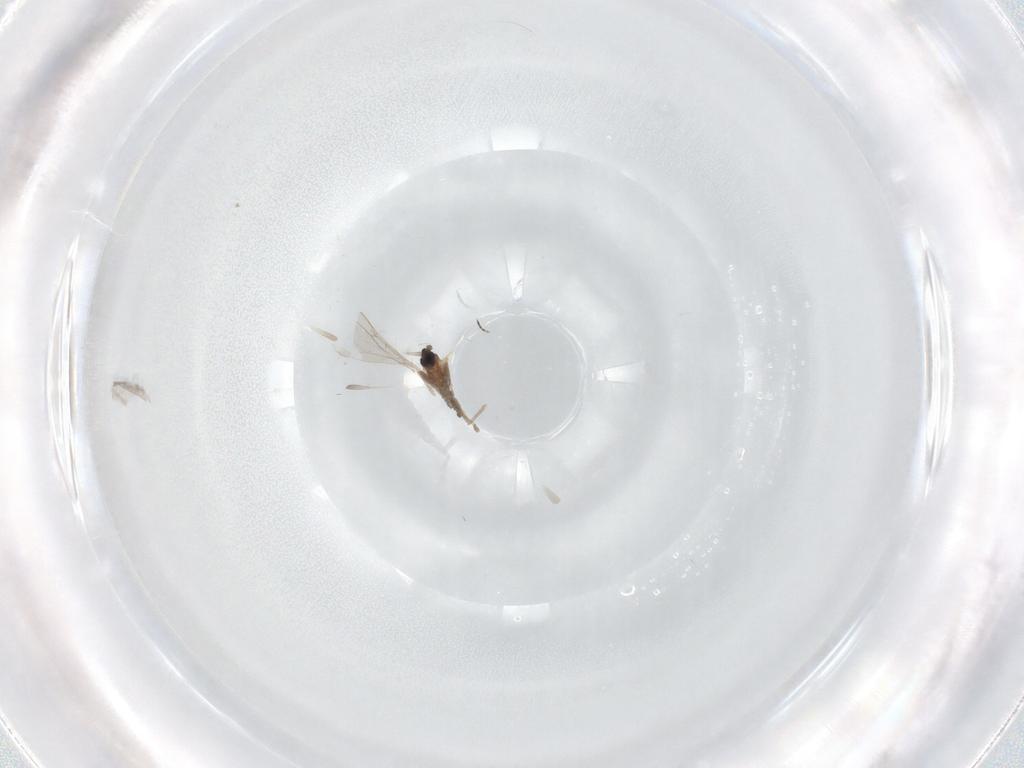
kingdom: Animalia
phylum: Arthropoda
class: Insecta
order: Diptera
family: Cecidomyiidae
